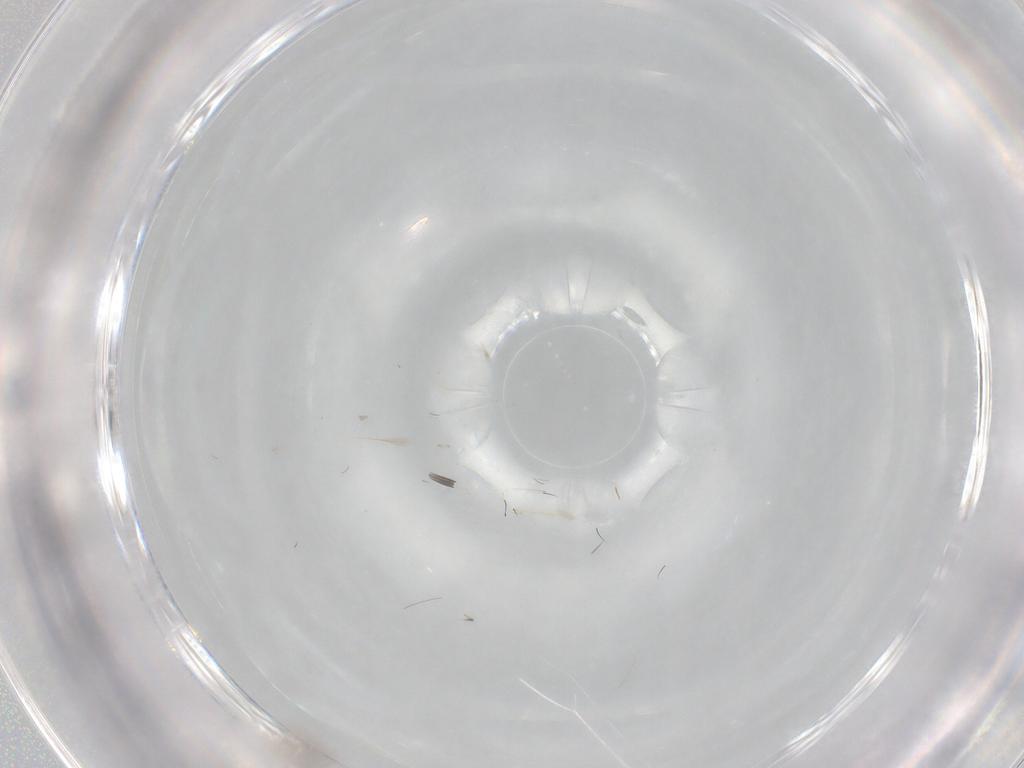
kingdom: Animalia
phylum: Arthropoda
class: Insecta
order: Diptera
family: Cecidomyiidae
